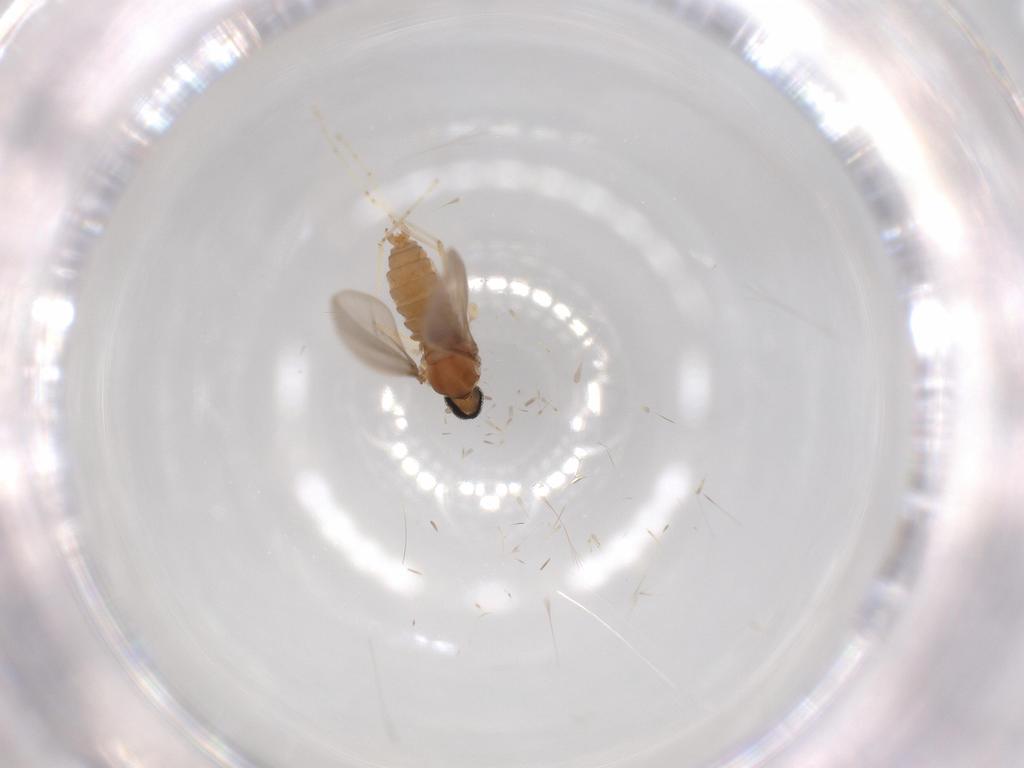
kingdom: Animalia
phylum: Arthropoda
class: Insecta
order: Diptera
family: Cecidomyiidae
